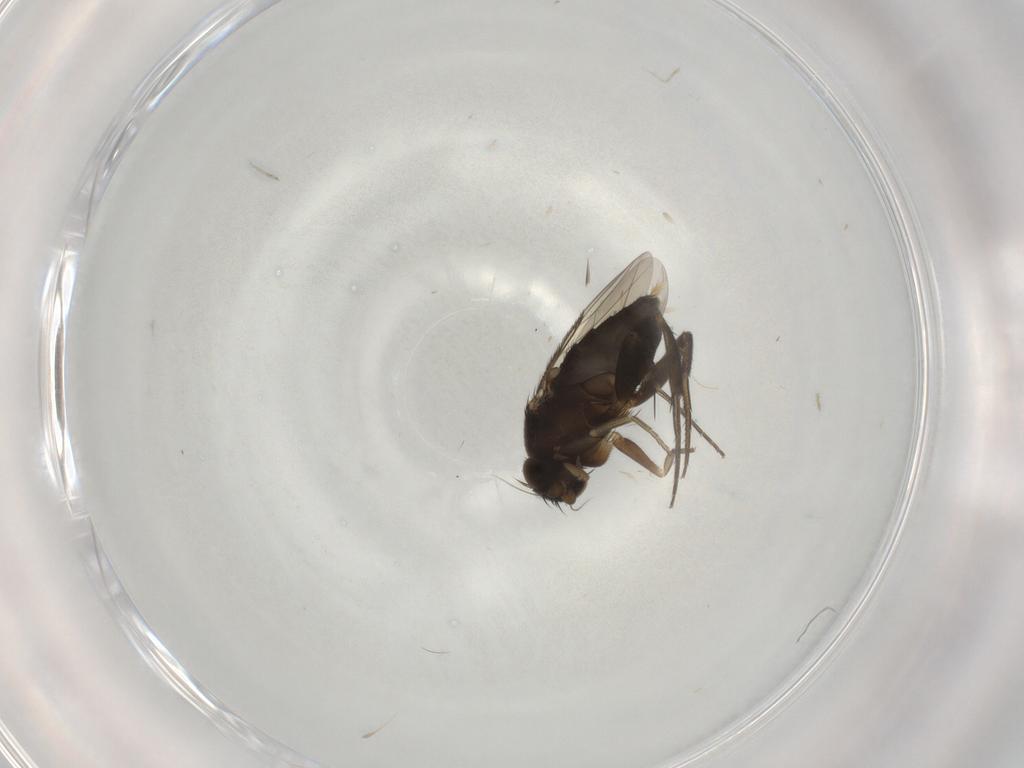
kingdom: Animalia
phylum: Arthropoda
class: Insecta
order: Diptera
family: Phoridae
